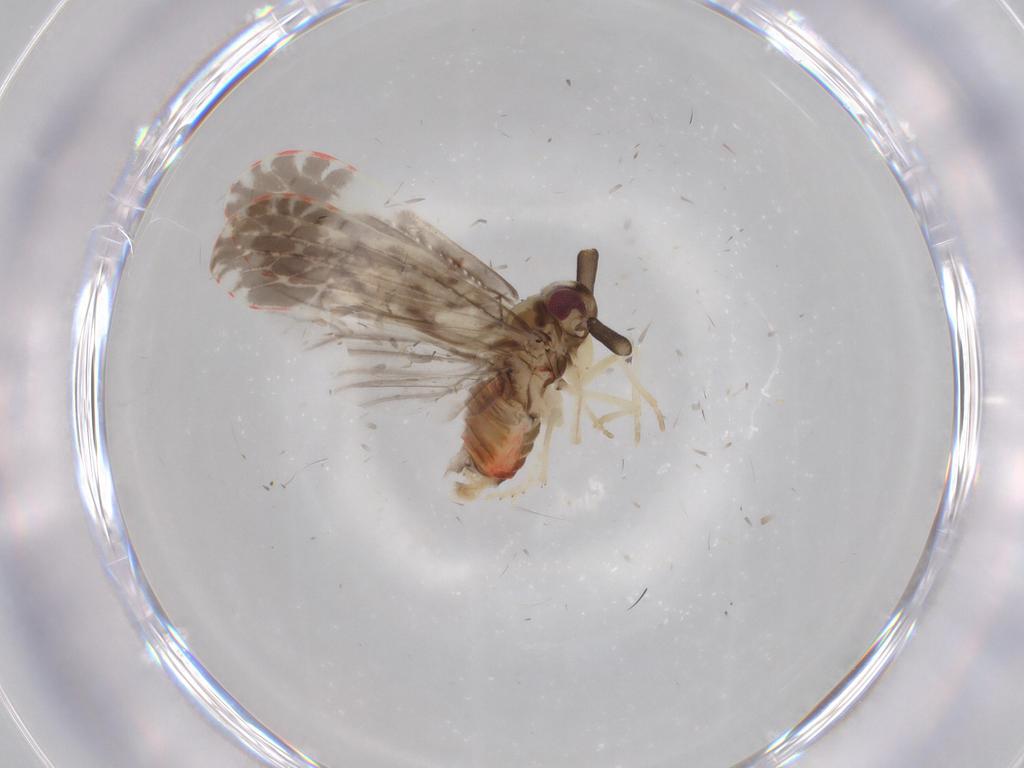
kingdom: Animalia
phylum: Arthropoda
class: Insecta
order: Hemiptera
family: Derbidae
